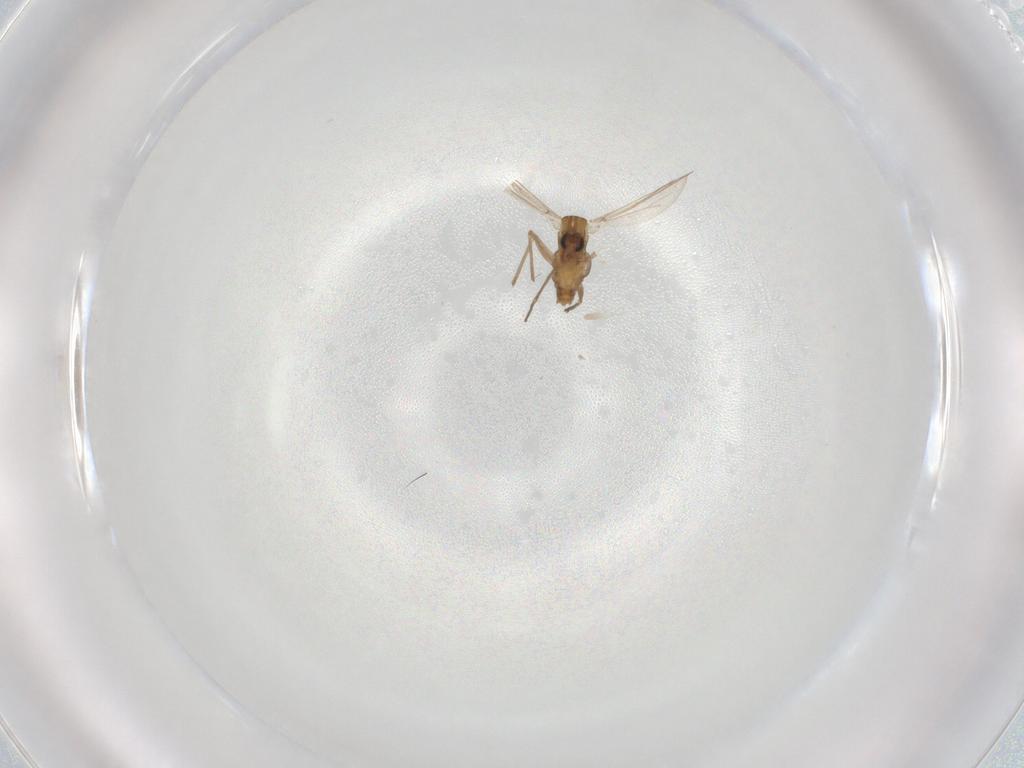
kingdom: Animalia
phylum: Arthropoda
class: Insecta
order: Diptera
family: Chironomidae
